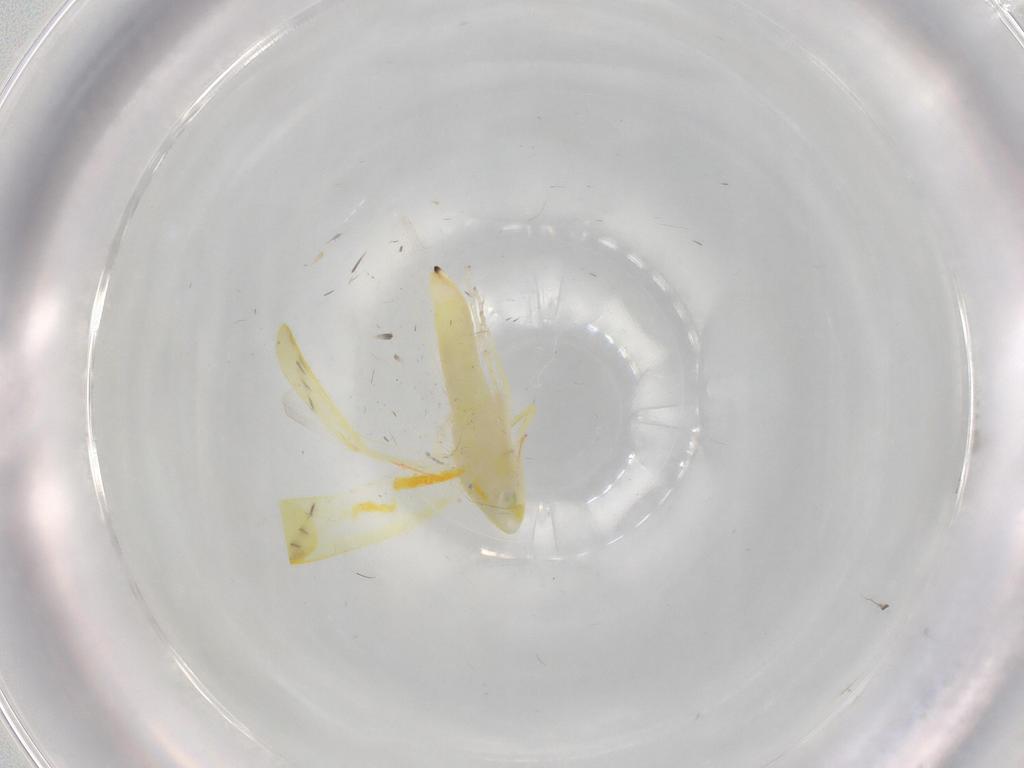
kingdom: Animalia
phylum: Arthropoda
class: Insecta
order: Hemiptera
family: Cicadellidae
